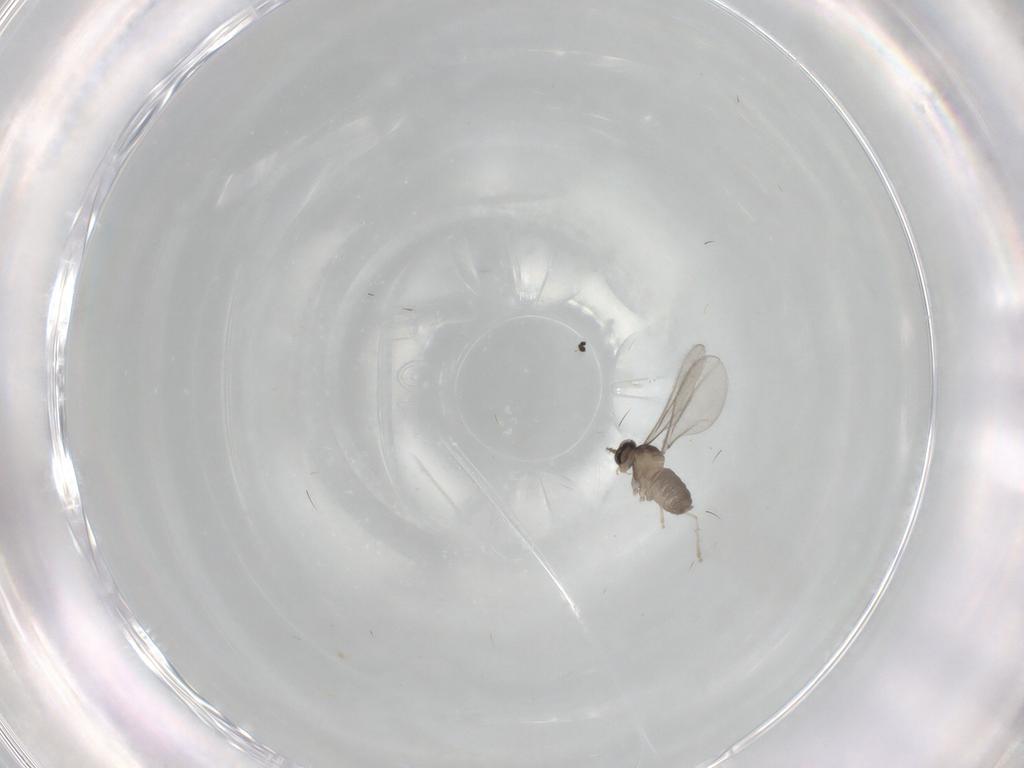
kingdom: Animalia
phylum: Arthropoda
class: Insecta
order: Diptera
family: Cecidomyiidae
